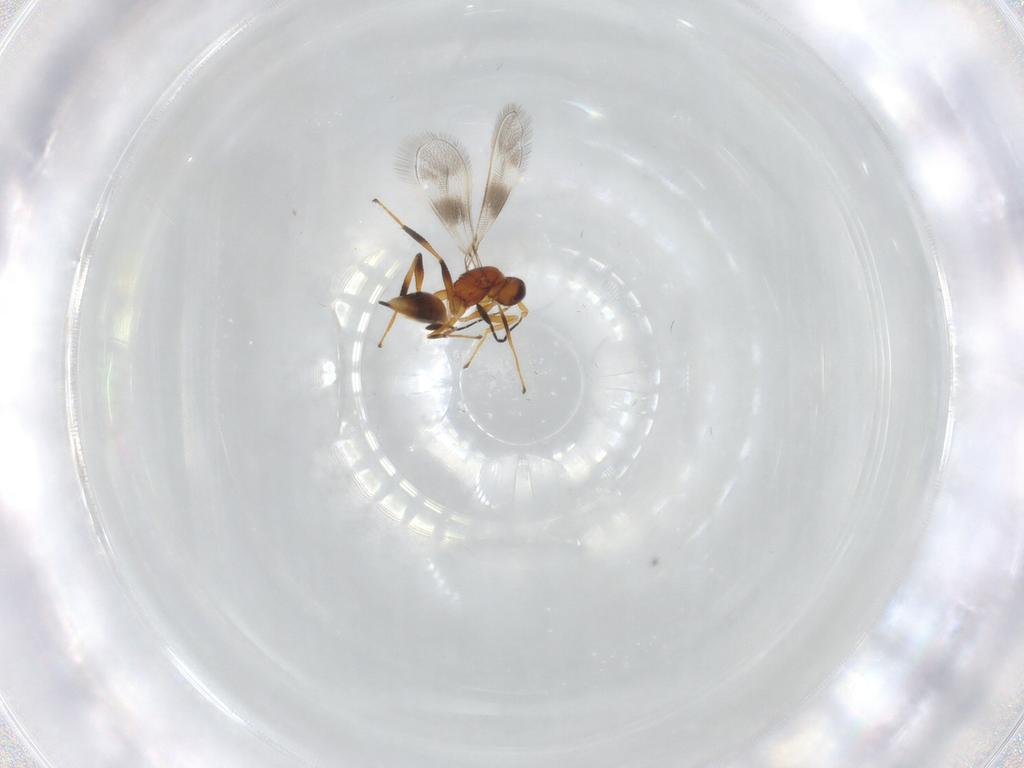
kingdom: Animalia
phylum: Arthropoda
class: Insecta
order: Hymenoptera
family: Mymaridae
